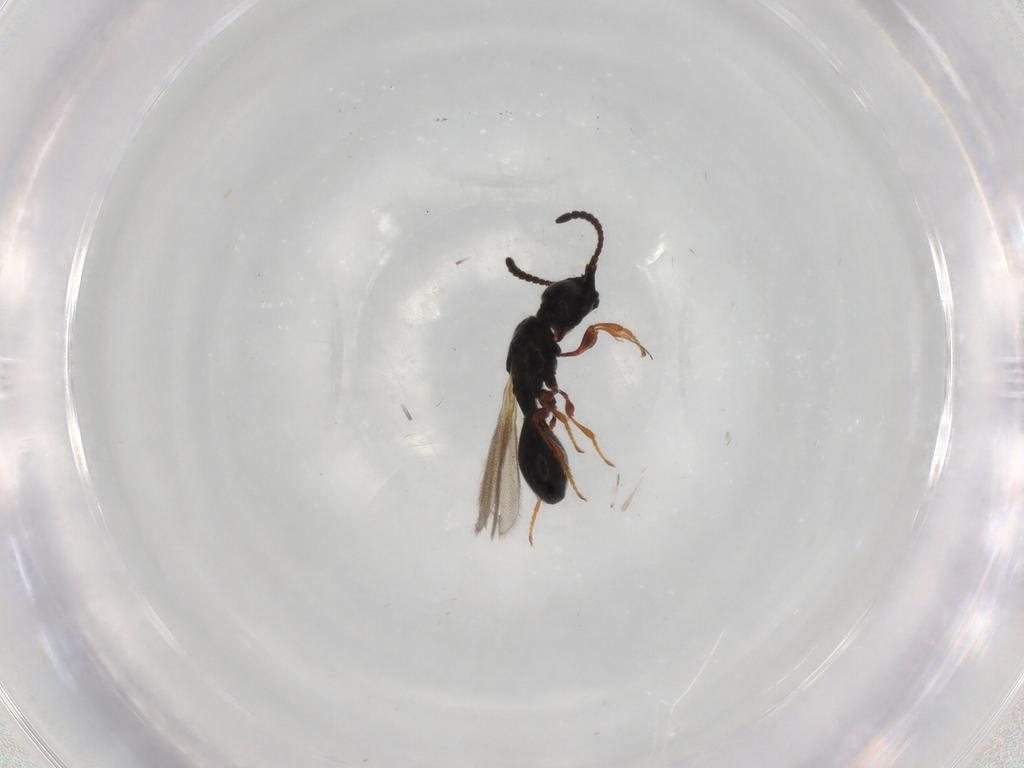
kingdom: Animalia
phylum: Arthropoda
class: Insecta
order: Hymenoptera
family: Diapriidae
